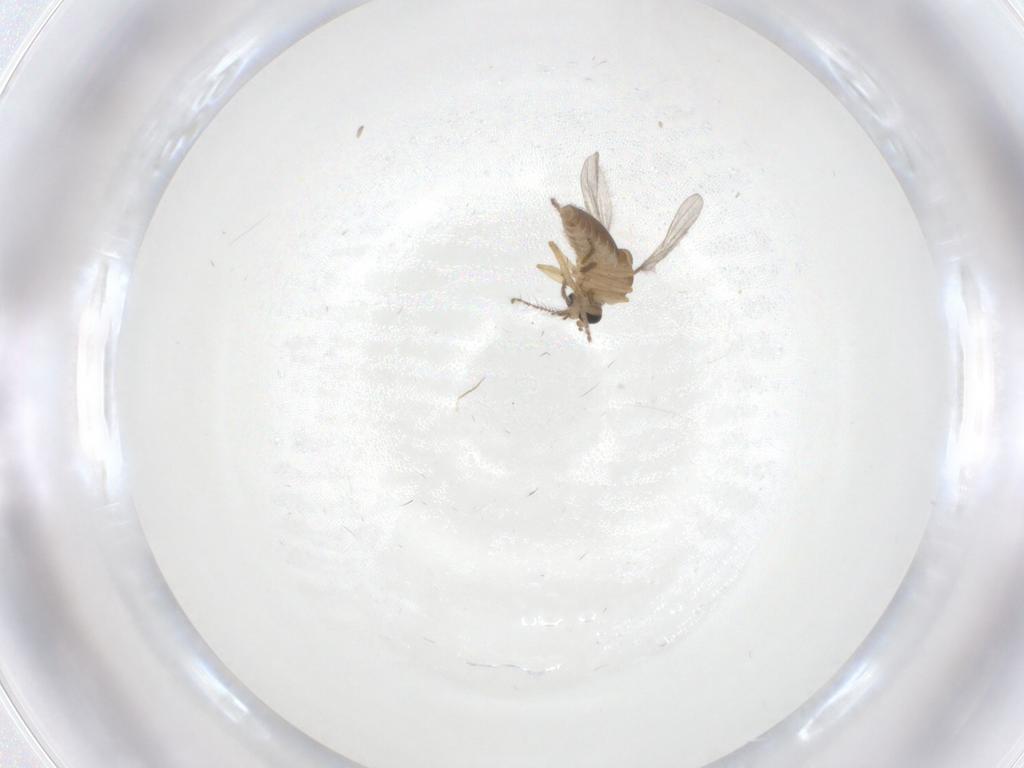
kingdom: Animalia
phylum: Arthropoda
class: Insecta
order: Diptera
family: Ceratopogonidae
